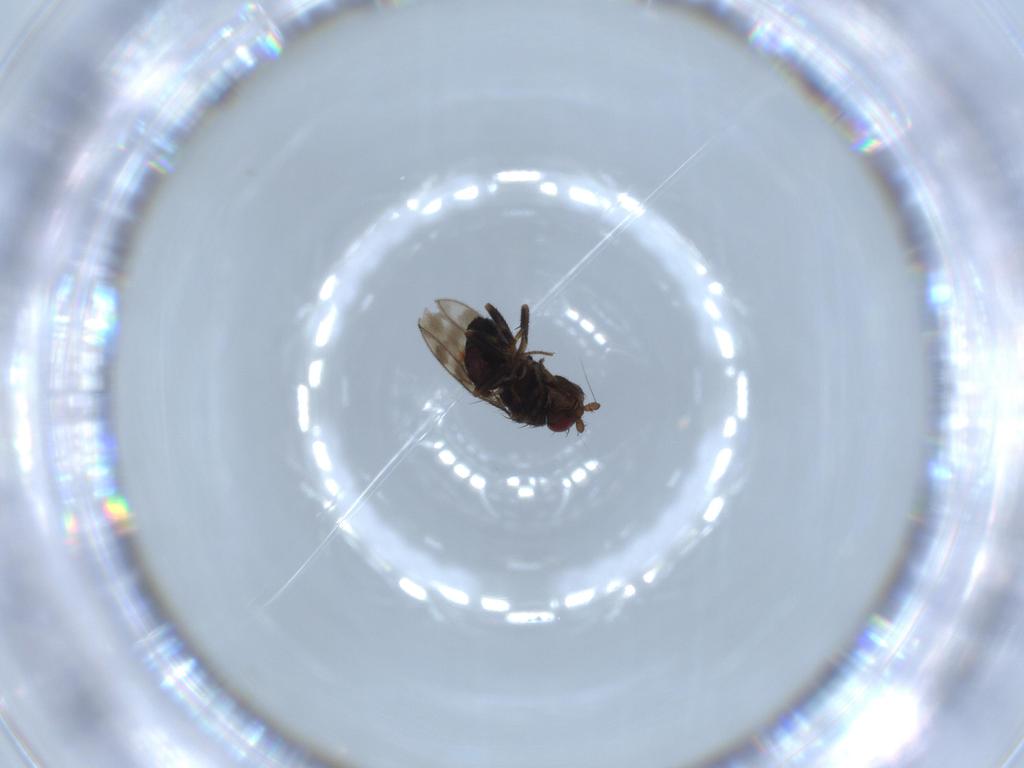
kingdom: Animalia
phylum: Arthropoda
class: Insecta
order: Diptera
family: Sphaeroceridae
